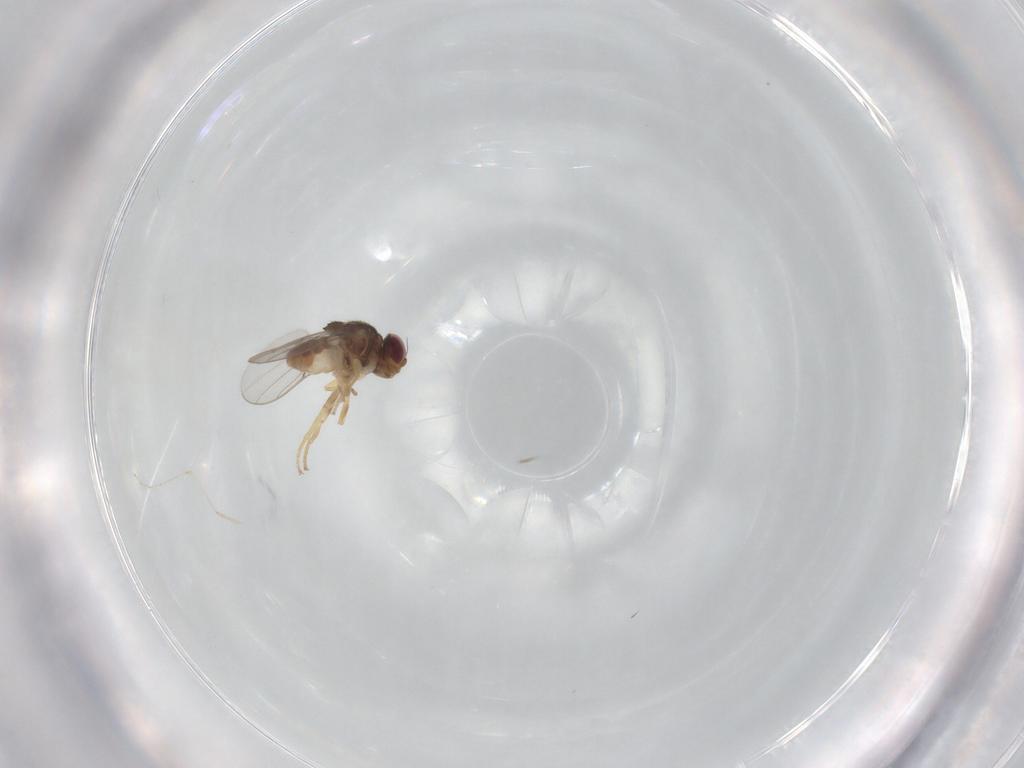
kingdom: Animalia
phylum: Arthropoda
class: Insecta
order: Diptera
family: Chloropidae
